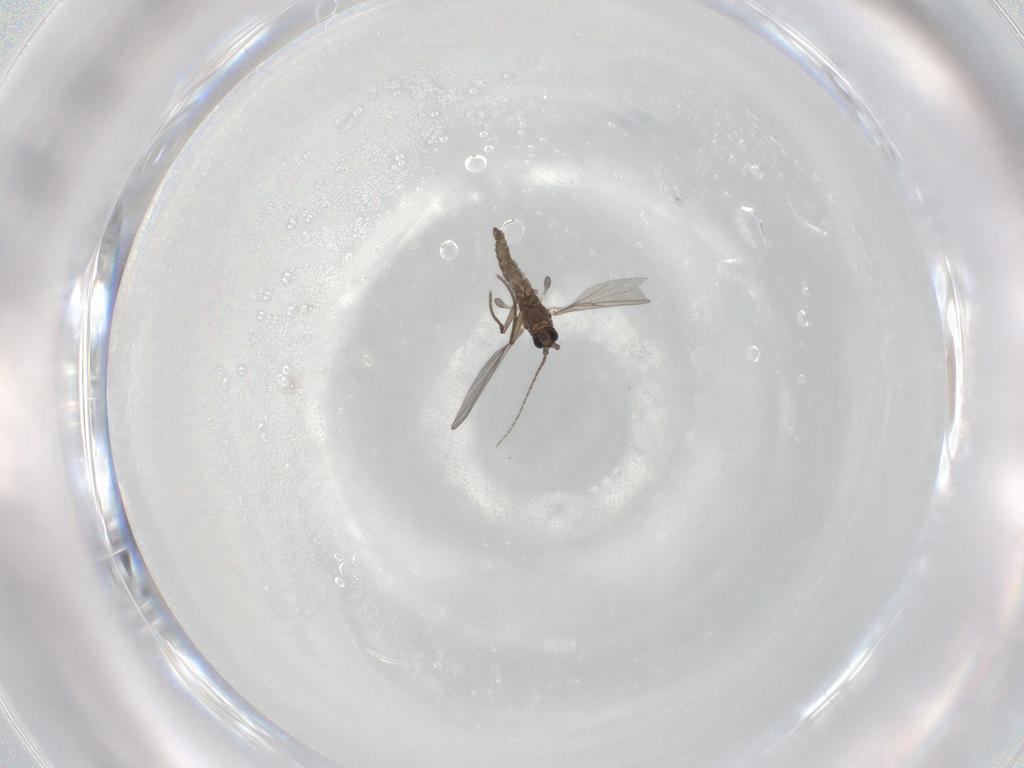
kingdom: Animalia
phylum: Arthropoda
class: Insecta
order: Diptera
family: Sciaridae
